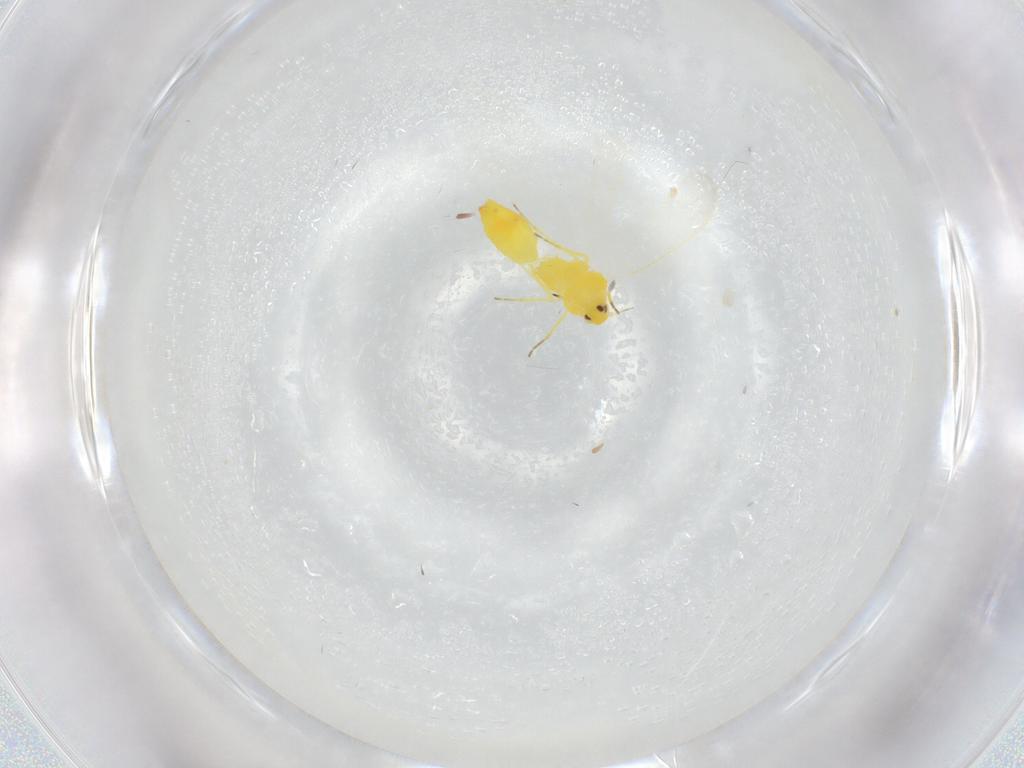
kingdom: Animalia
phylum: Arthropoda
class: Insecta
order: Hemiptera
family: Aleyrodidae
